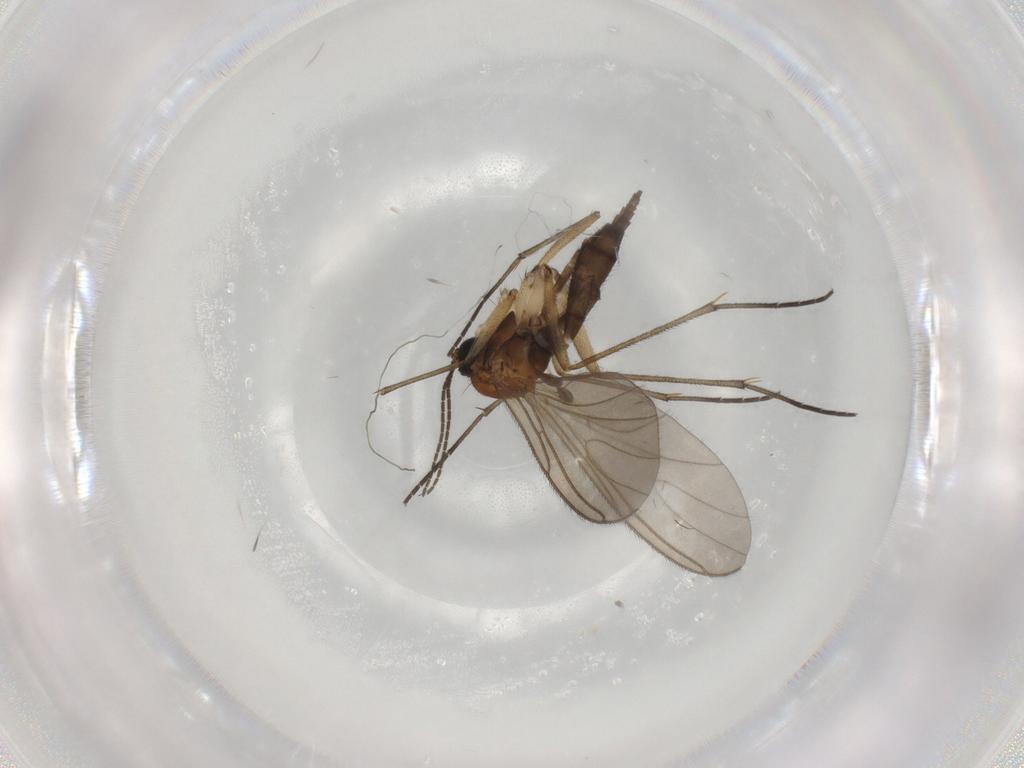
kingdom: Animalia
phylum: Arthropoda
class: Insecta
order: Diptera
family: Sciaridae
